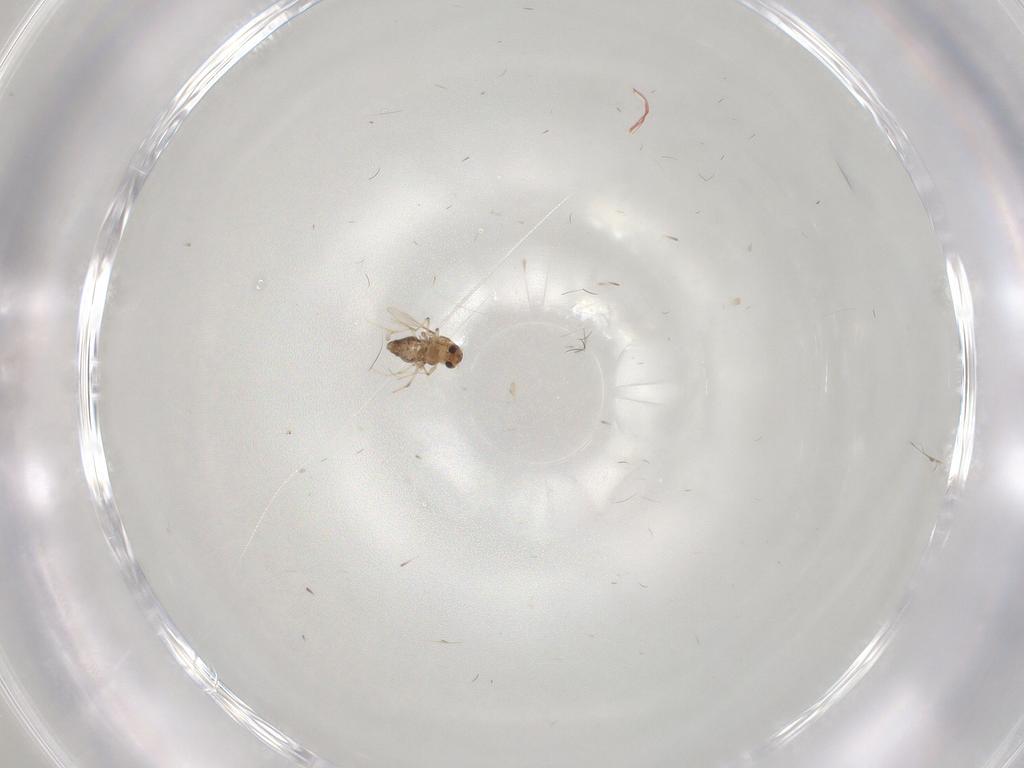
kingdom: Animalia
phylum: Arthropoda
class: Insecta
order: Diptera
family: Chironomidae
